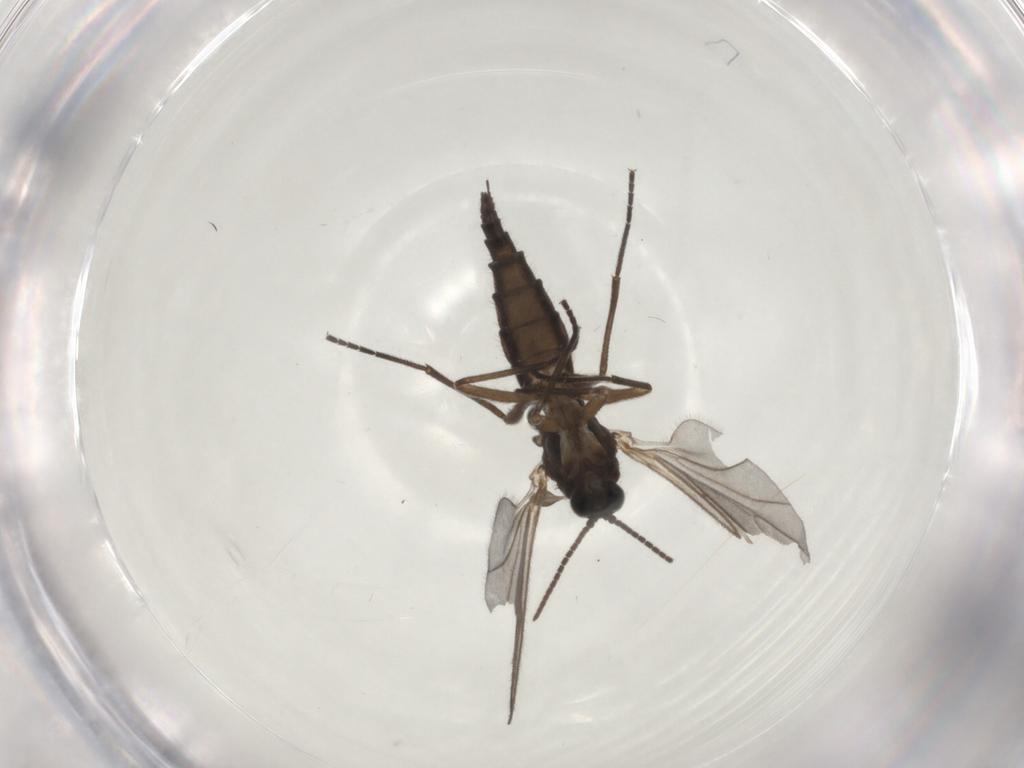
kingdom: Animalia
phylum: Arthropoda
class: Insecta
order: Diptera
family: Sciaridae
